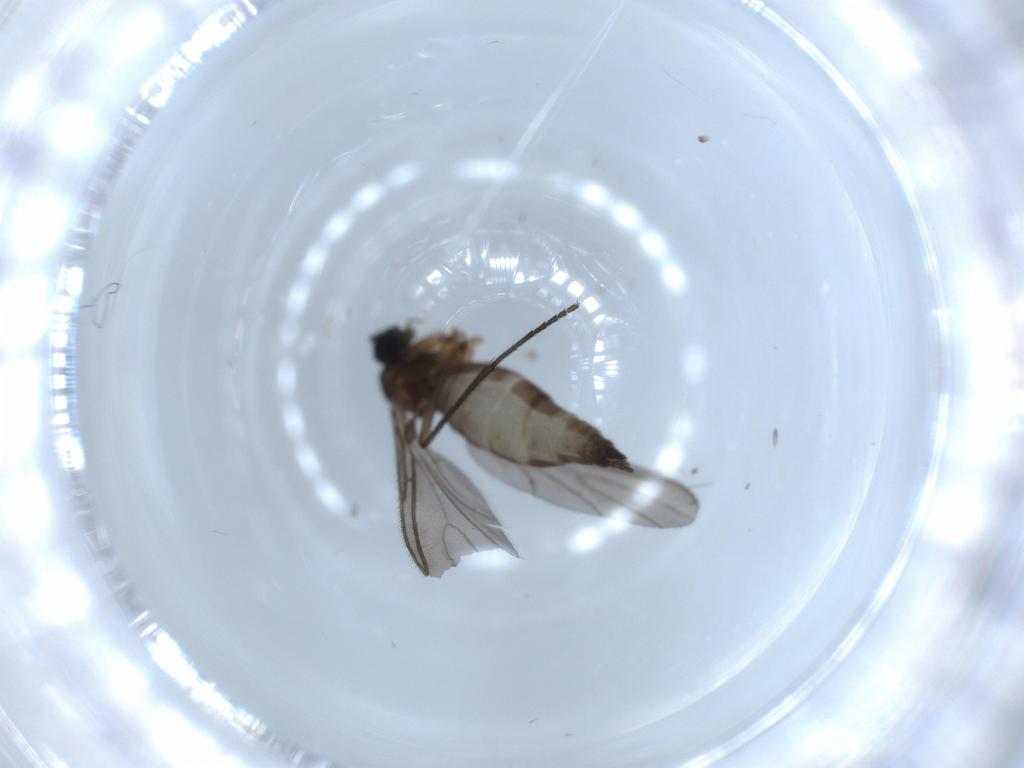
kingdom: Animalia
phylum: Arthropoda
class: Insecta
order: Diptera
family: Sciaridae
